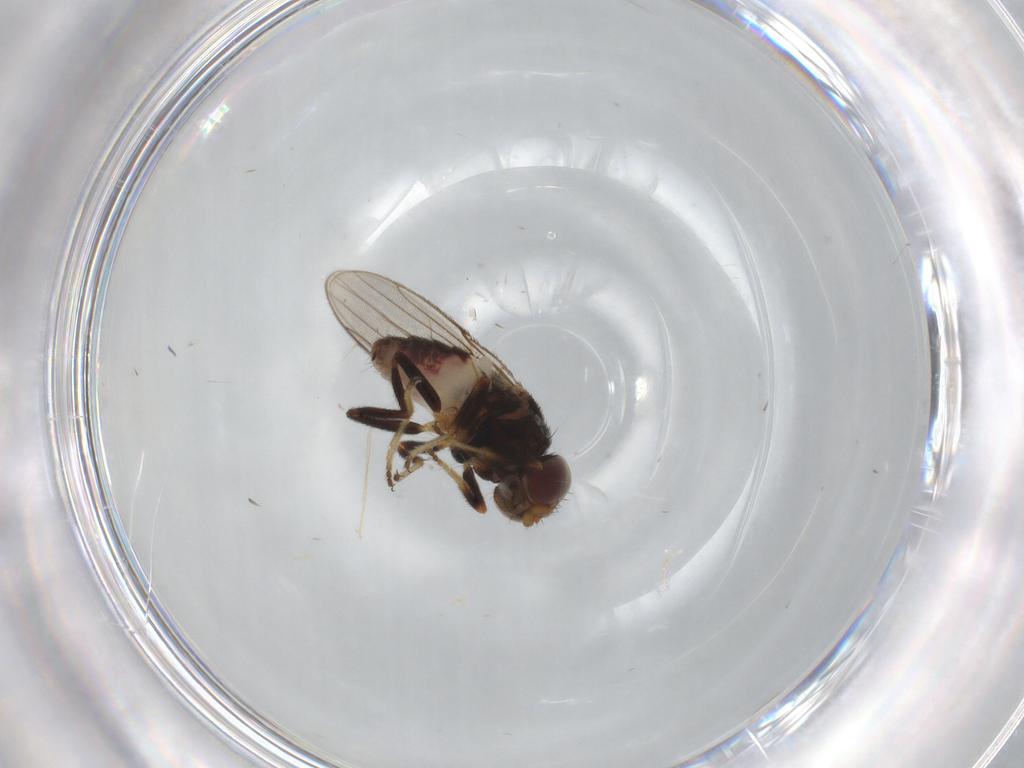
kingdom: Animalia
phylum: Arthropoda
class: Insecta
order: Diptera
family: Chloropidae
